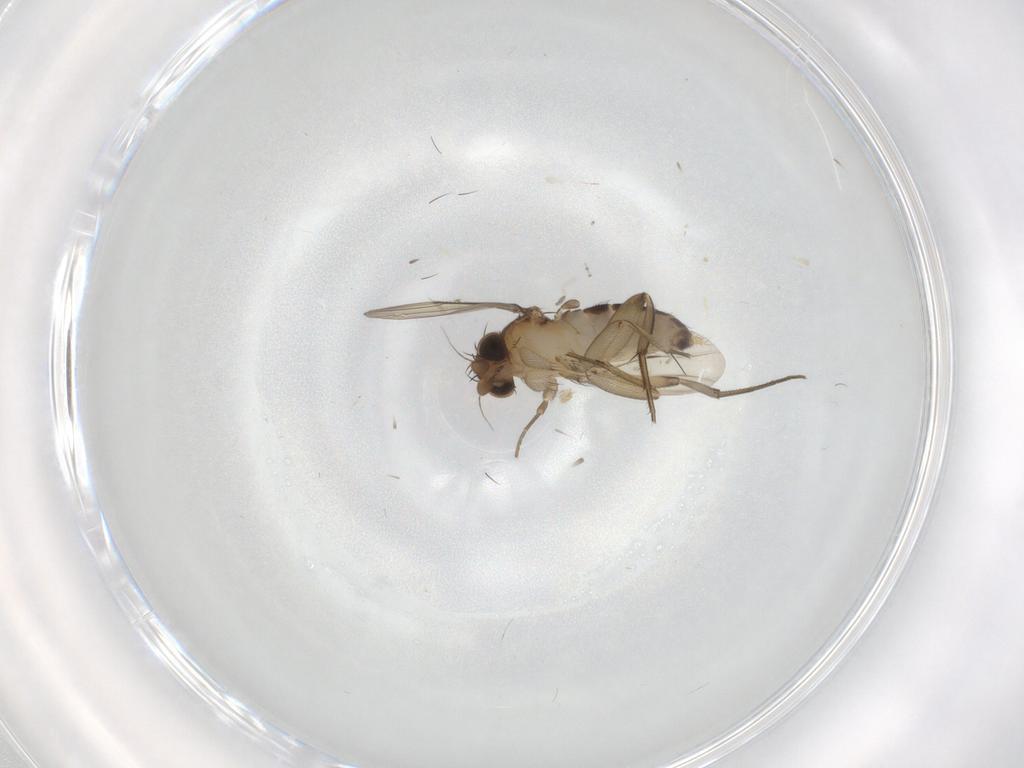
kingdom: Animalia
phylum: Arthropoda
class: Insecta
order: Diptera
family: Phoridae
